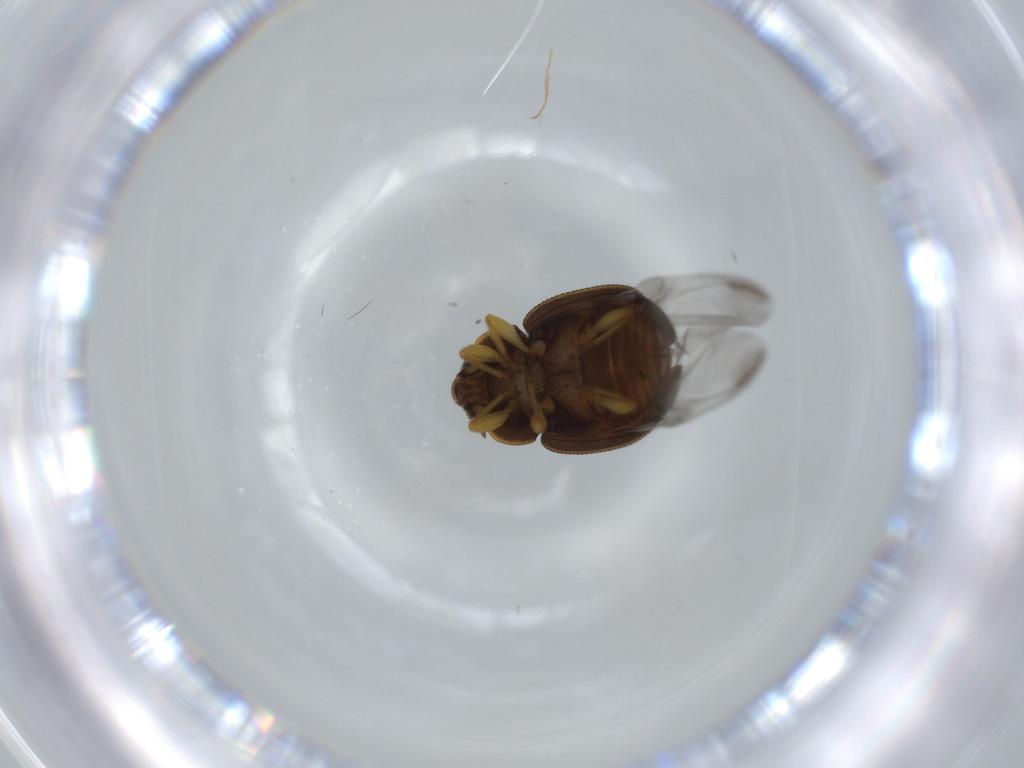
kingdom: Animalia
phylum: Arthropoda
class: Insecta
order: Coleoptera
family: Coccinellidae
